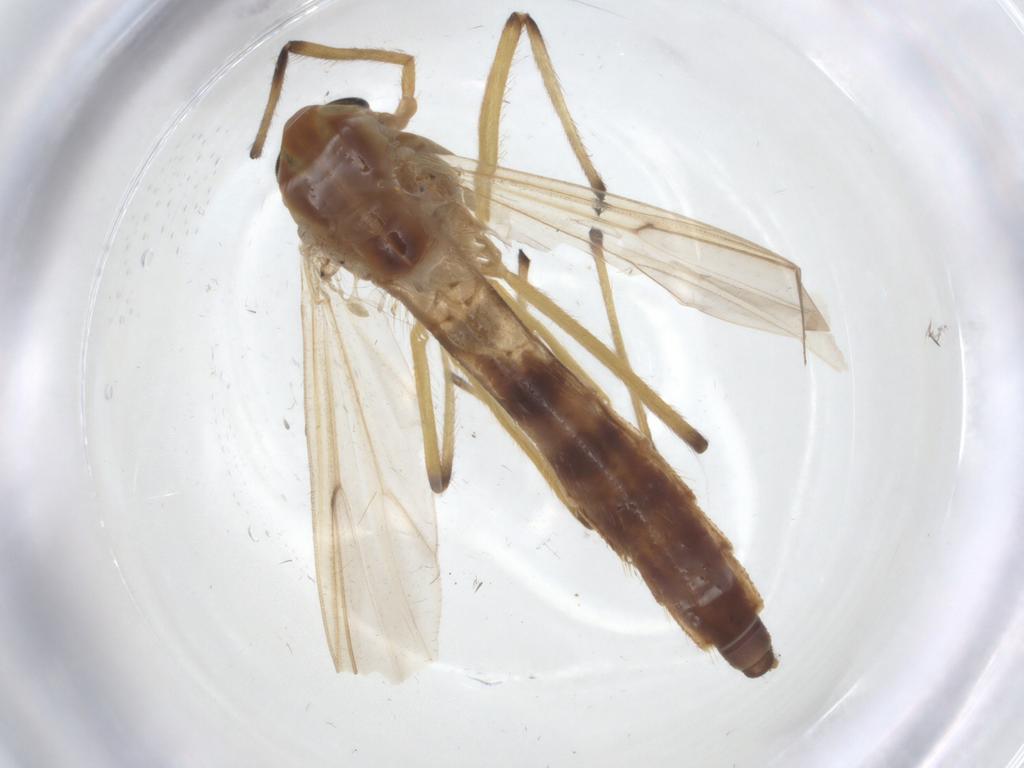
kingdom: Animalia
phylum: Arthropoda
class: Insecta
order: Diptera
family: Chironomidae
